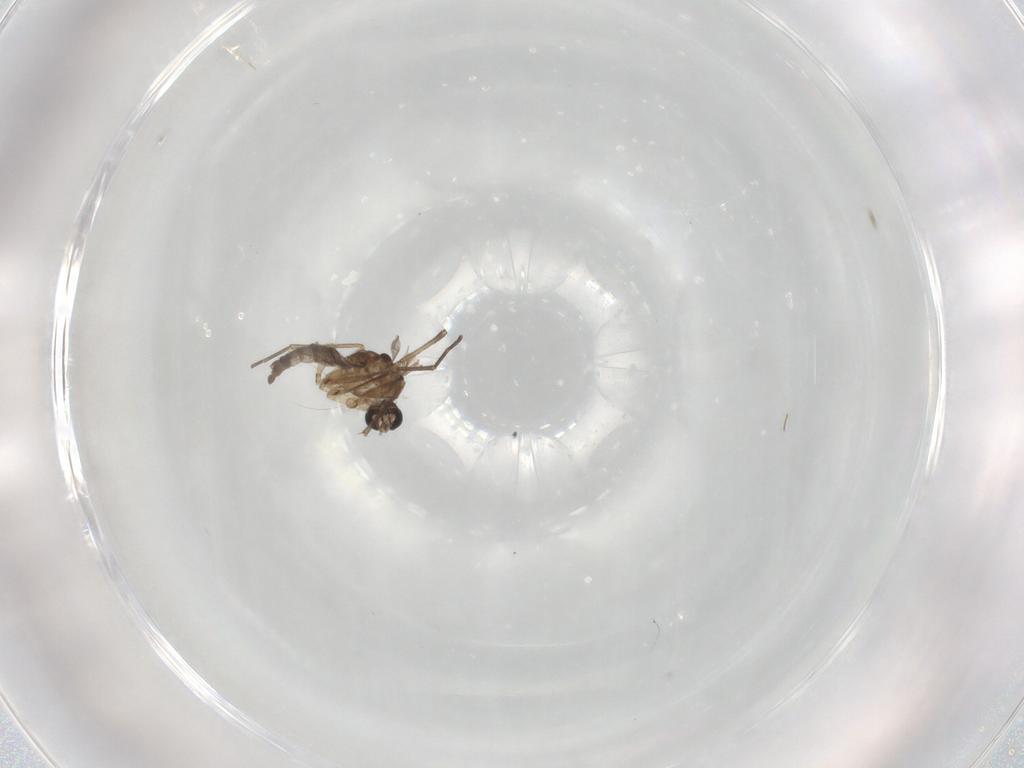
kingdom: Animalia
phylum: Arthropoda
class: Insecta
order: Diptera
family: Sciaridae
